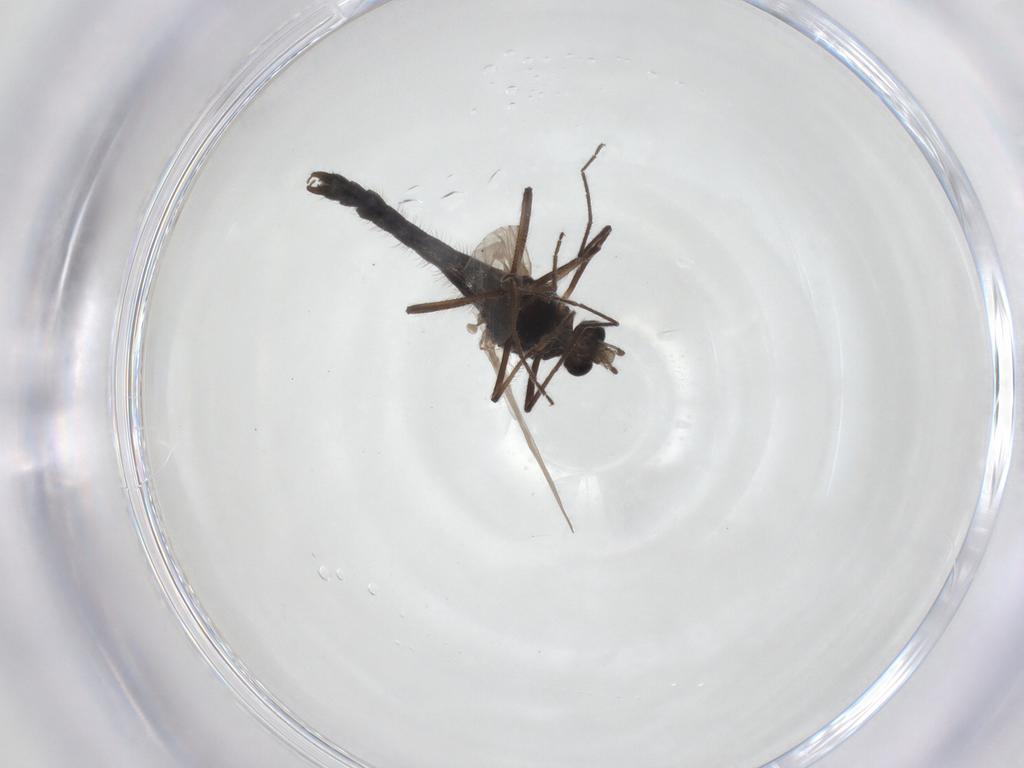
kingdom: Animalia
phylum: Arthropoda
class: Insecta
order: Diptera
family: Chironomidae
